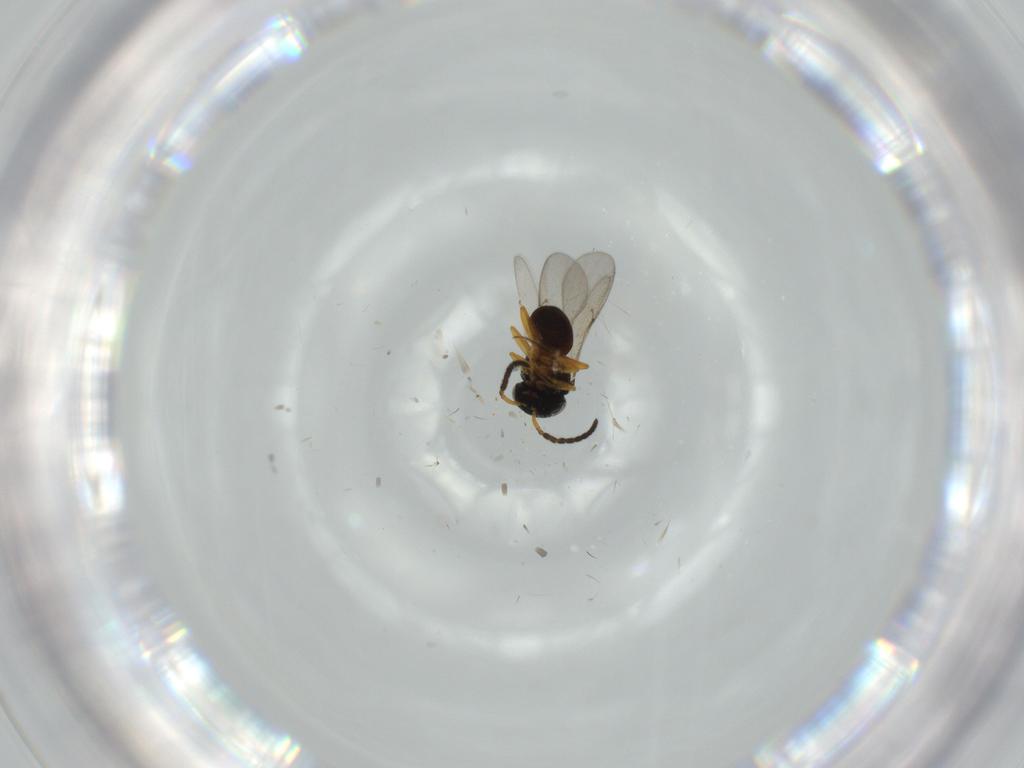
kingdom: Animalia
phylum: Arthropoda
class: Insecta
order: Hymenoptera
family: Scelionidae
